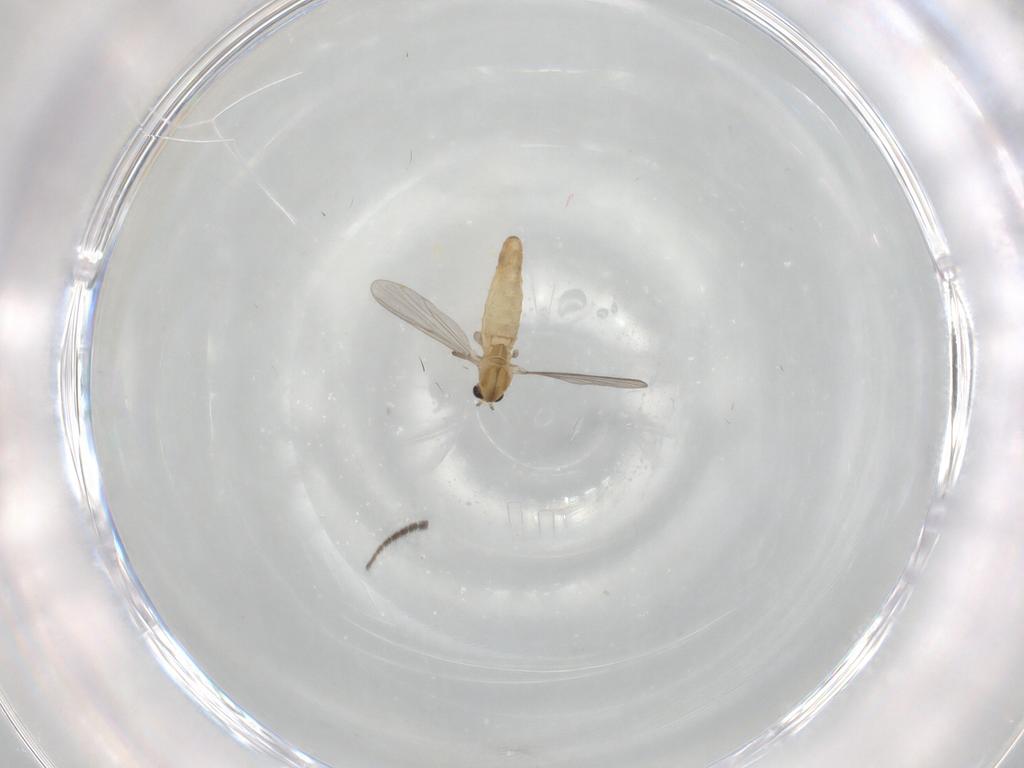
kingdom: Animalia
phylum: Arthropoda
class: Insecta
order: Diptera
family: Chironomidae
